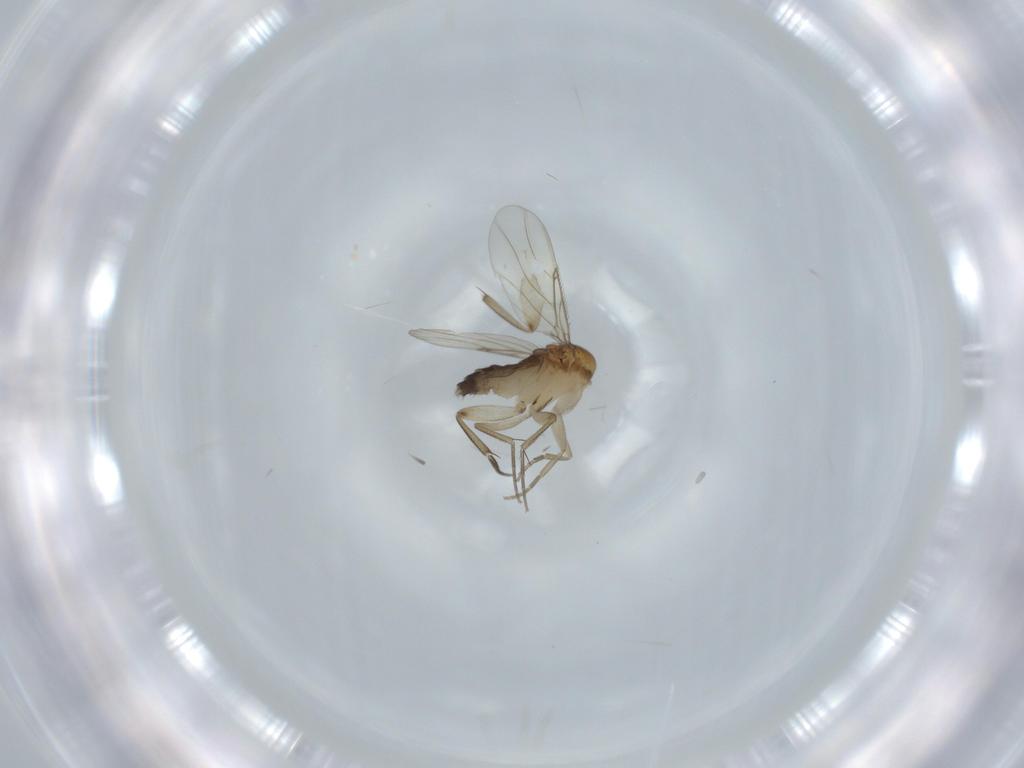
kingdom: Animalia
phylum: Arthropoda
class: Insecta
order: Diptera
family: Phoridae
